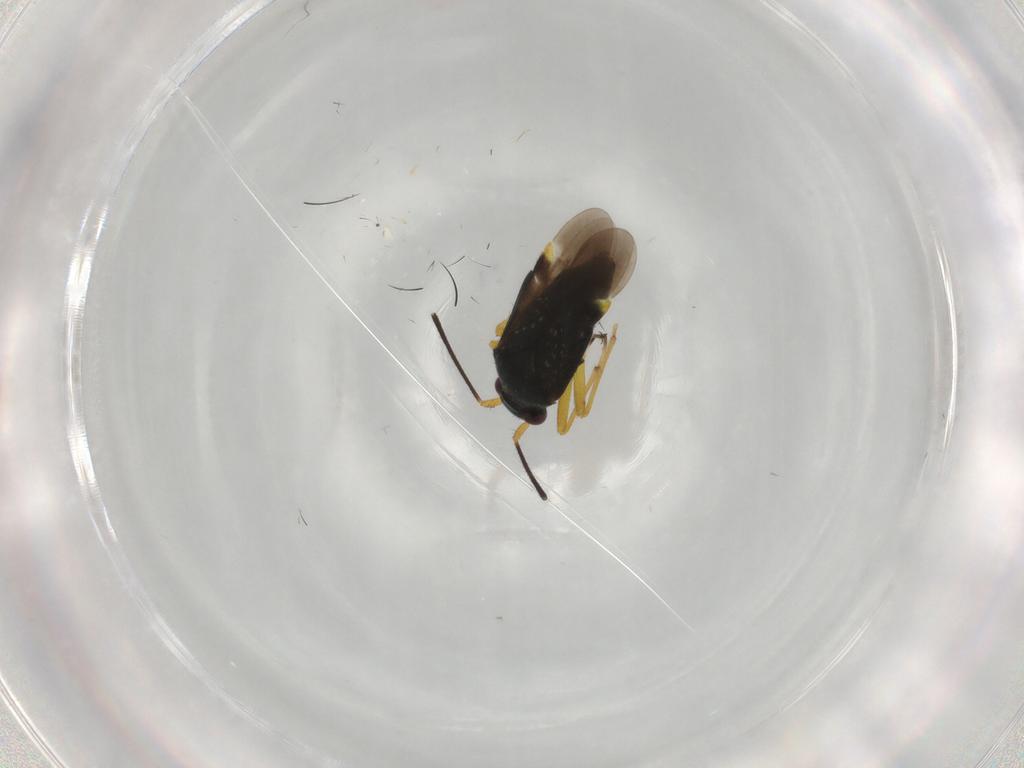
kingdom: Animalia
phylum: Arthropoda
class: Insecta
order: Hemiptera
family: Miridae
